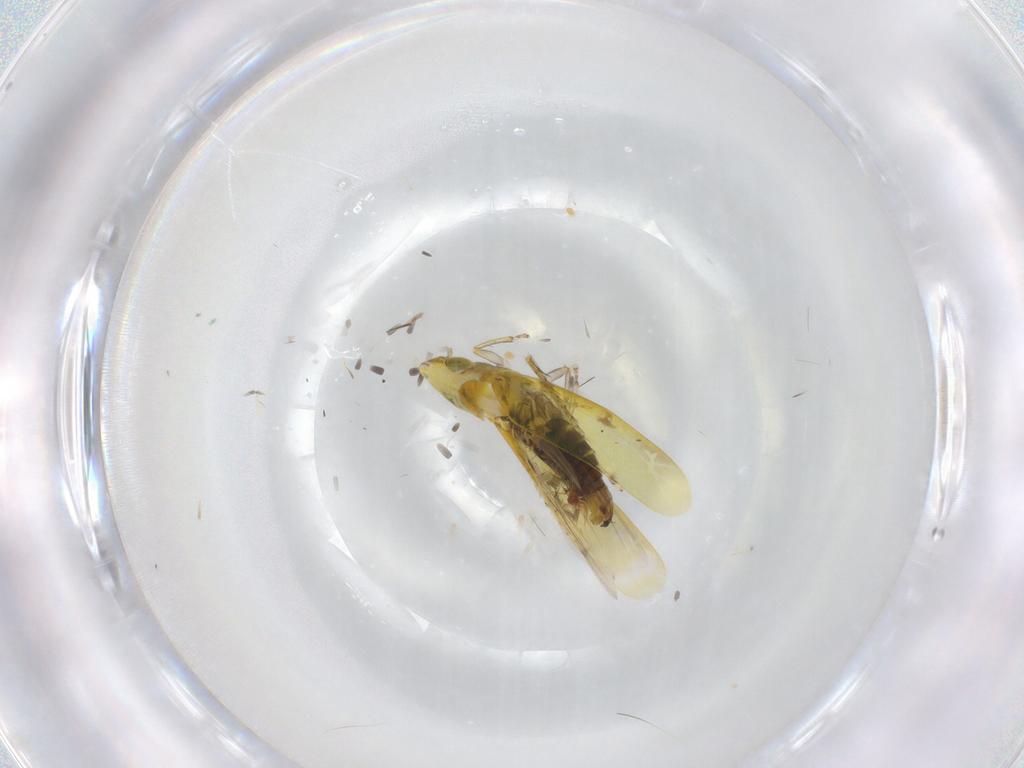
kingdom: Animalia
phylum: Arthropoda
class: Insecta
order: Hemiptera
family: Cicadellidae
